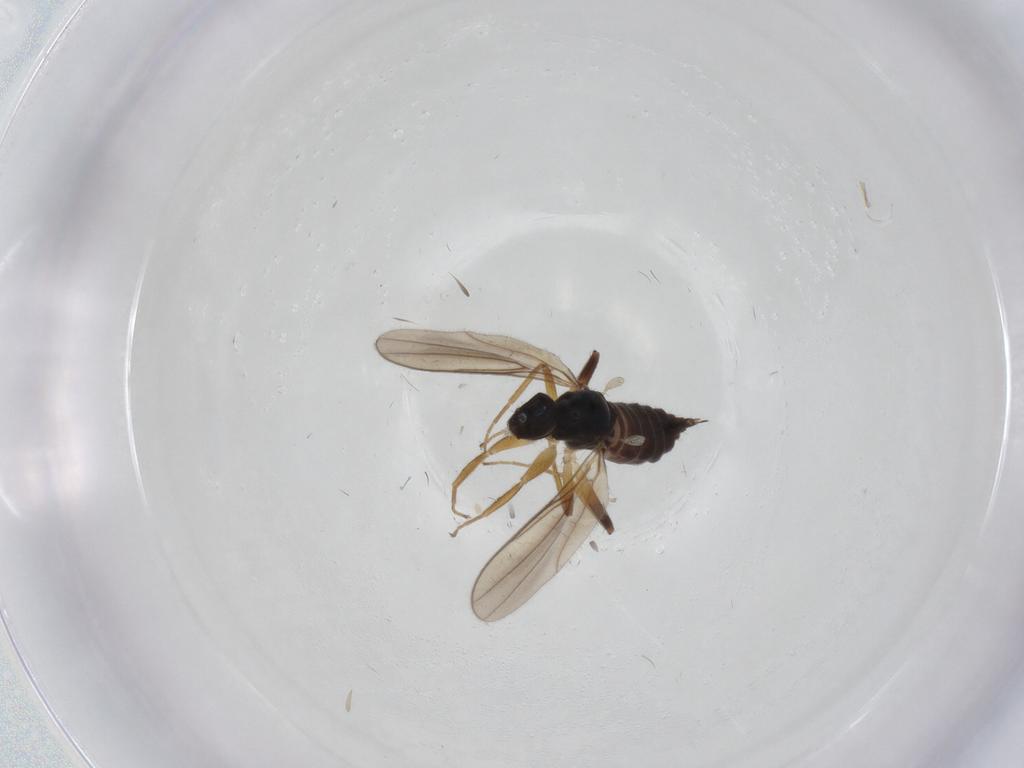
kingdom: Animalia
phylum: Arthropoda
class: Insecta
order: Diptera
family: Hybotidae
